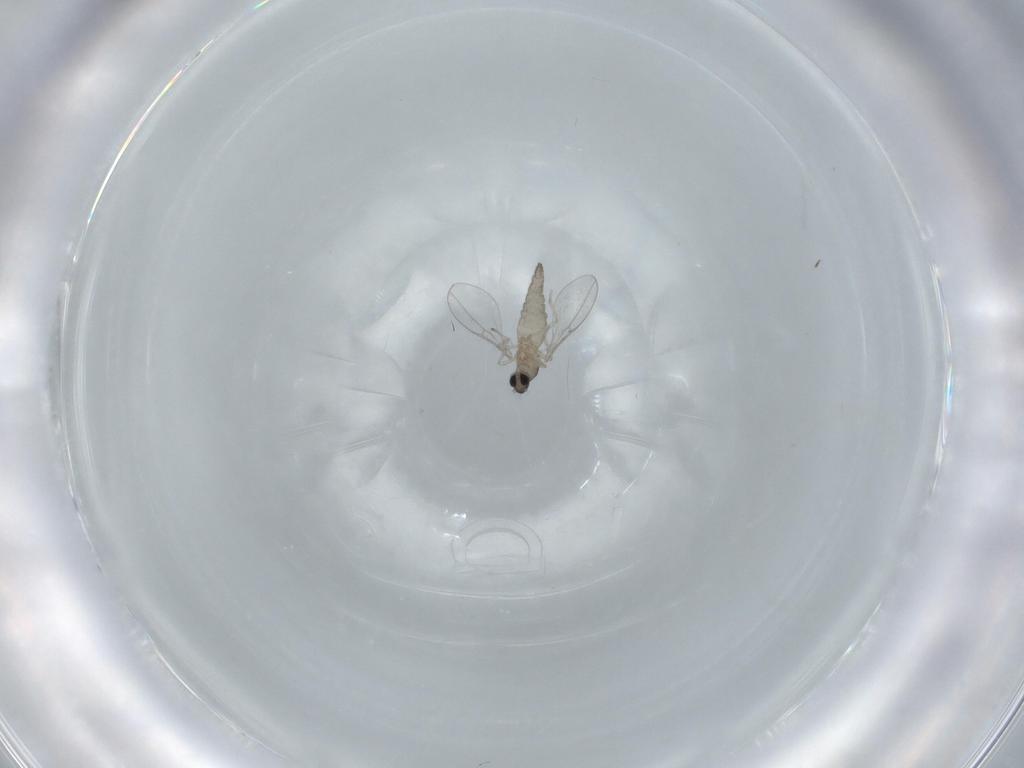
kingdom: Animalia
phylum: Arthropoda
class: Insecta
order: Diptera
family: Cecidomyiidae
